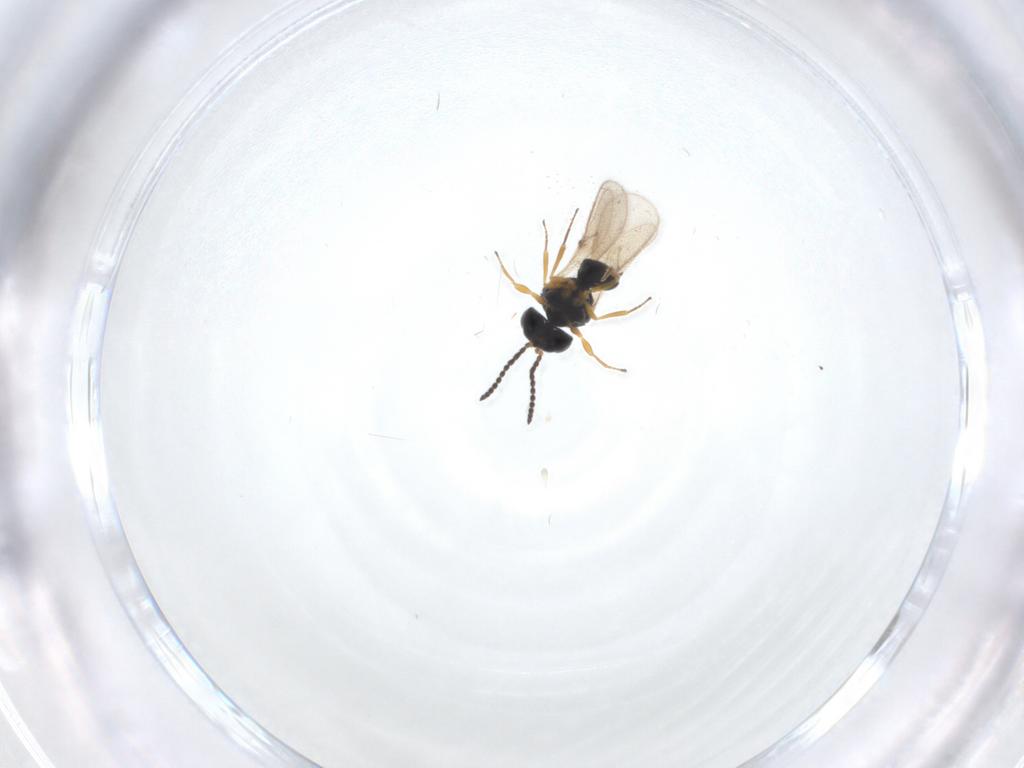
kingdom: Animalia
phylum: Arthropoda
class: Insecta
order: Hymenoptera
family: Scelionidae
